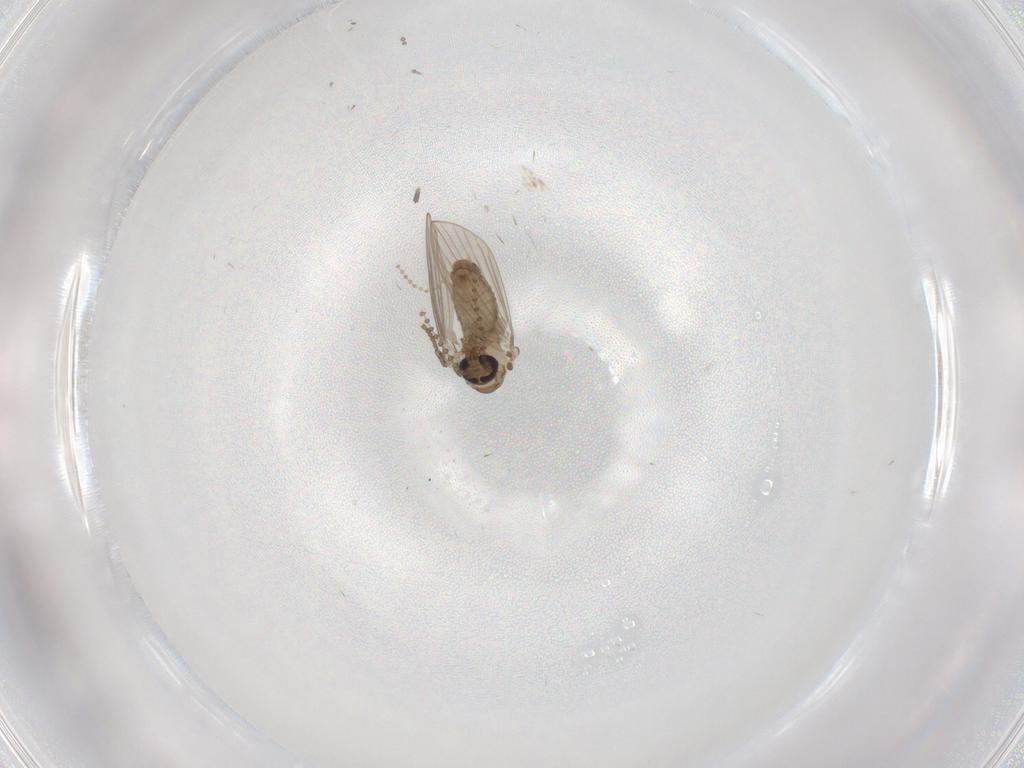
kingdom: Animalia
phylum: Arthropoda
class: Insecta
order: Diptera
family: Psychodidae
